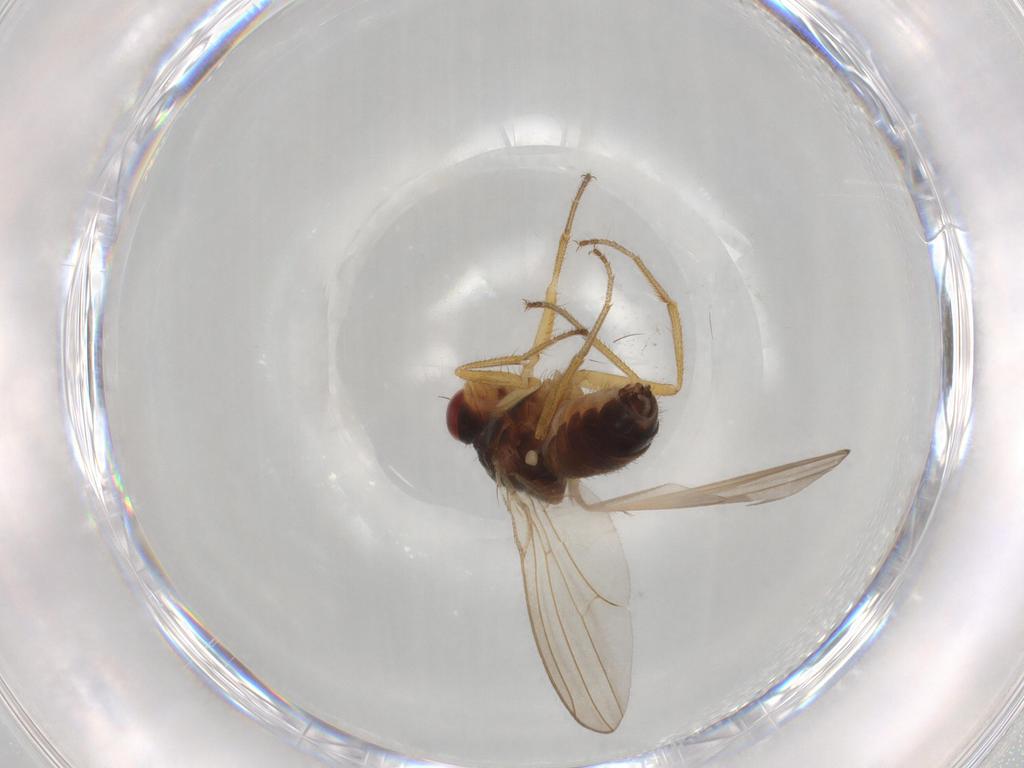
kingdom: Animalia
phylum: Arthropoda
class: Insecta
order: Diptera
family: Drosophilidae
